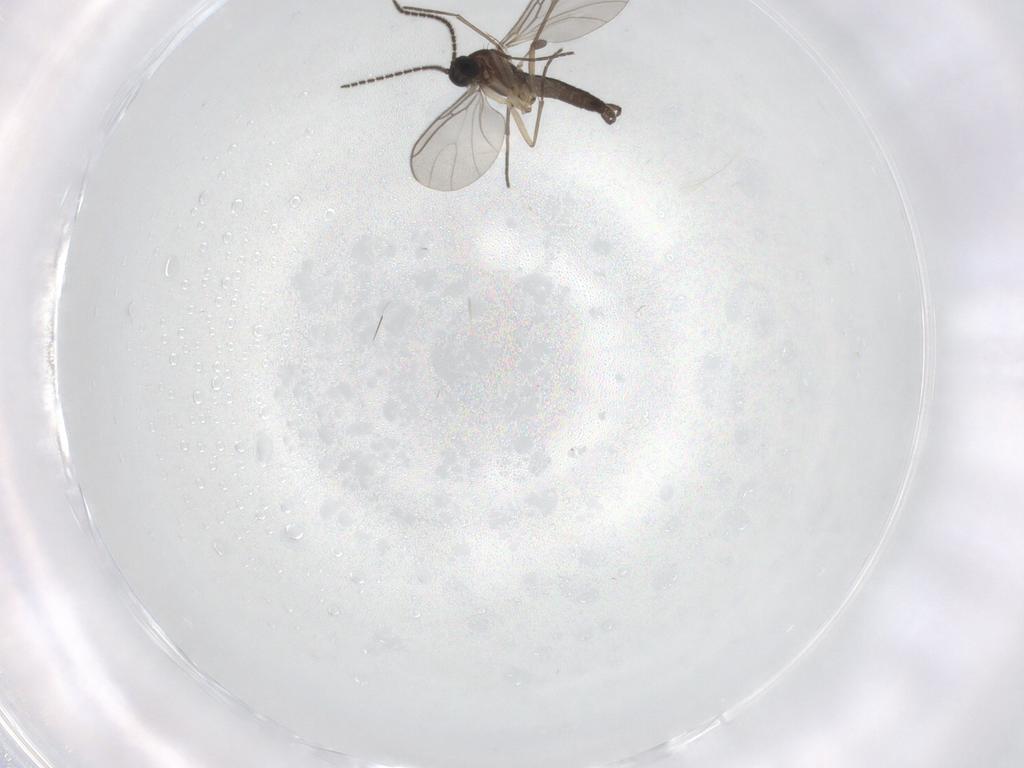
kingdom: Animalia
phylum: Arthropoda
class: Insecta
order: Diptera
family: Sciaridae
